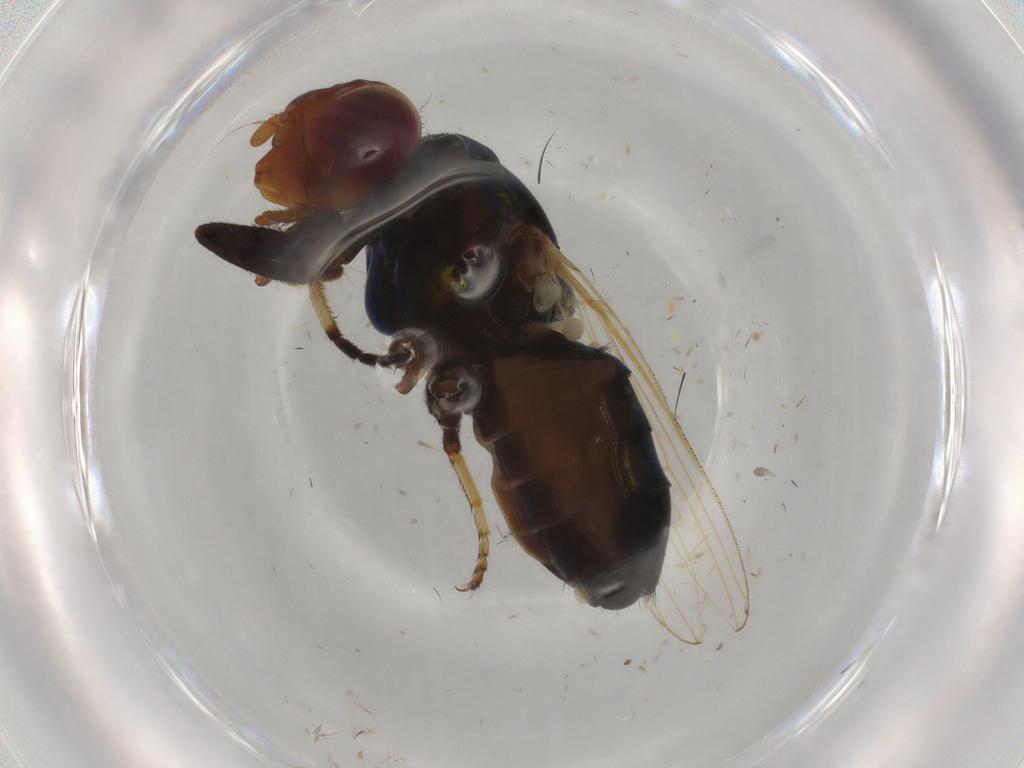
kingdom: Animalia
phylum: Arthropoda
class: Insecta
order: Diptera
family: Ulidiidae
